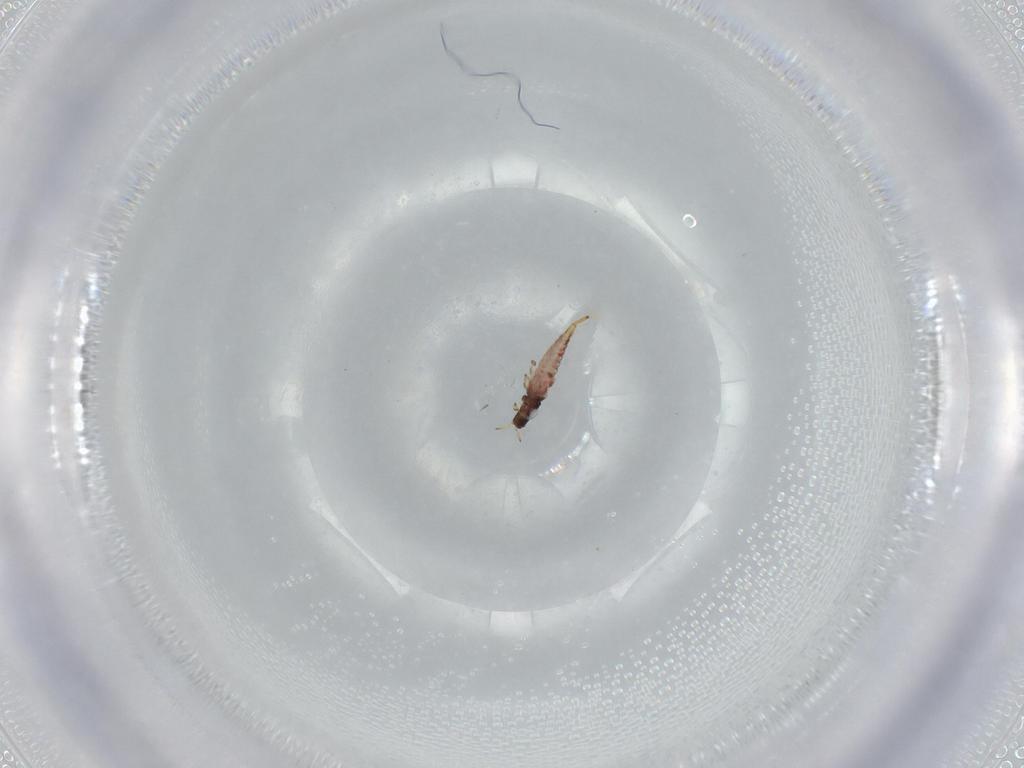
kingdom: Animalia
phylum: Arthropoda
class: Insecta
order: Thysanoptera
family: Phlaeothripidae
